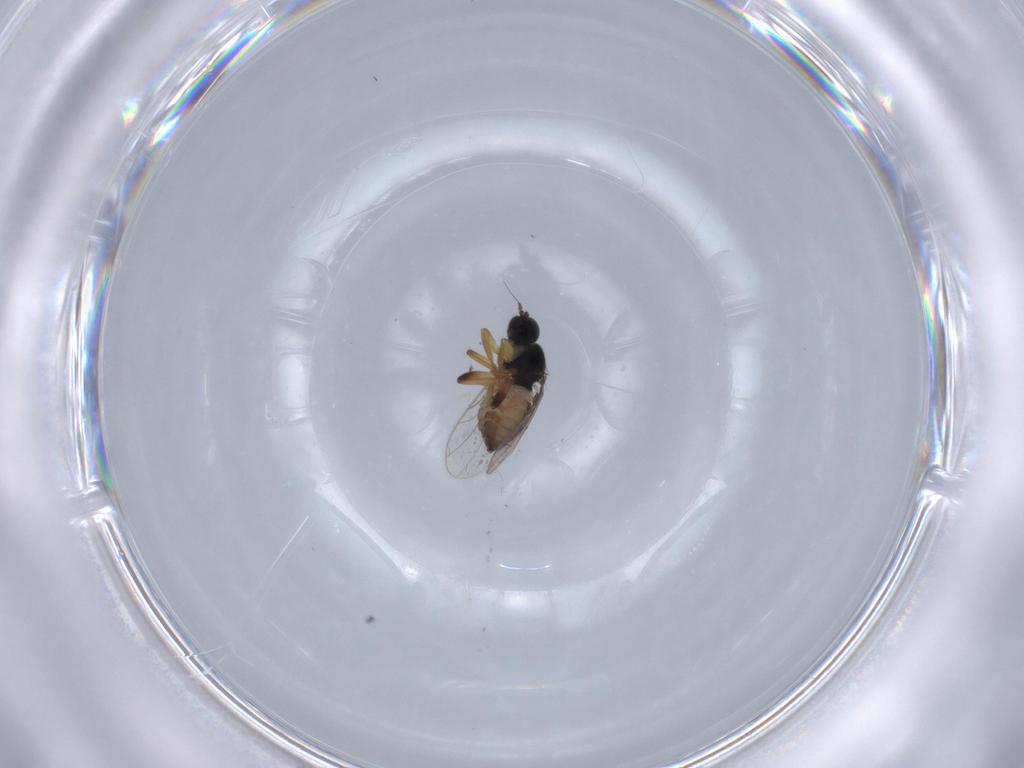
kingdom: Animalia
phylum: Arthropoda
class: Insecta
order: Diptera
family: Hybotidae
